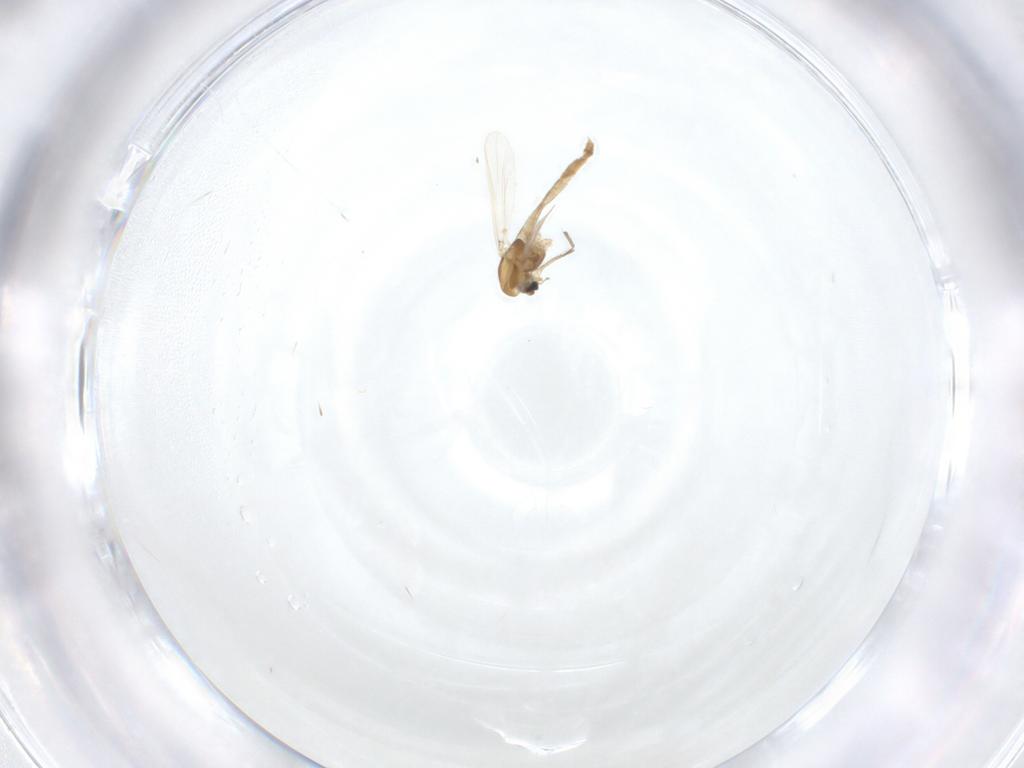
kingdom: Animalia
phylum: Arthropoda
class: Insecta
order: Diptera
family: Chironomidae
